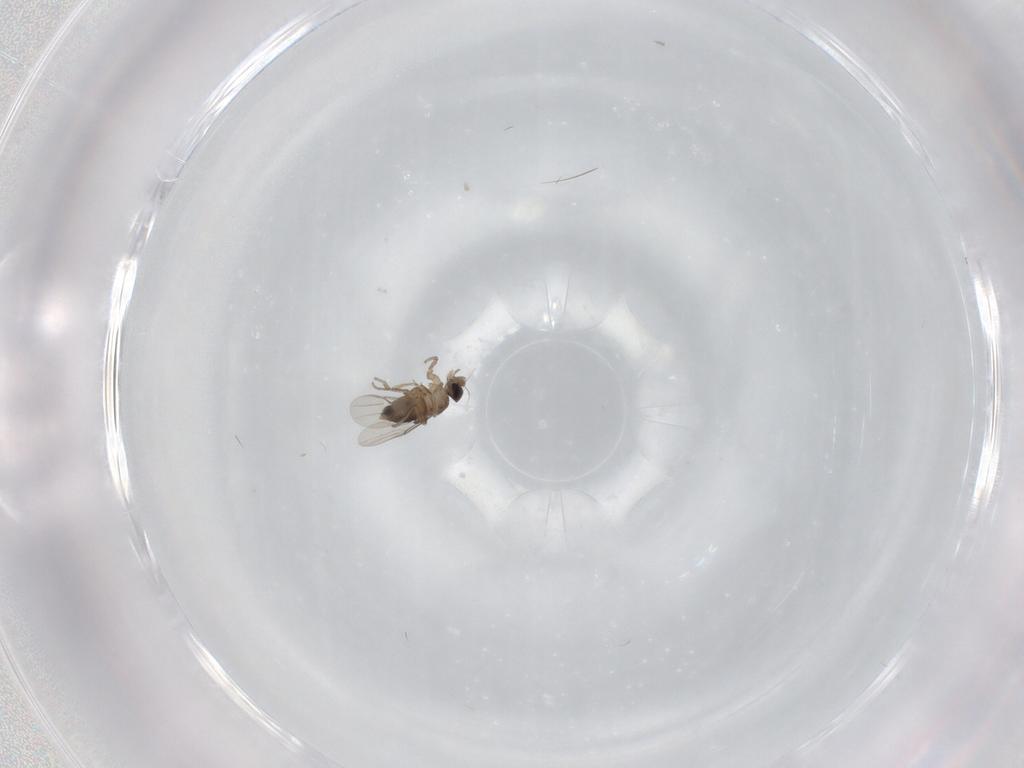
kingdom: Animalia
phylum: Arthropoda
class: Insecta
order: Diptera
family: Phoridae
